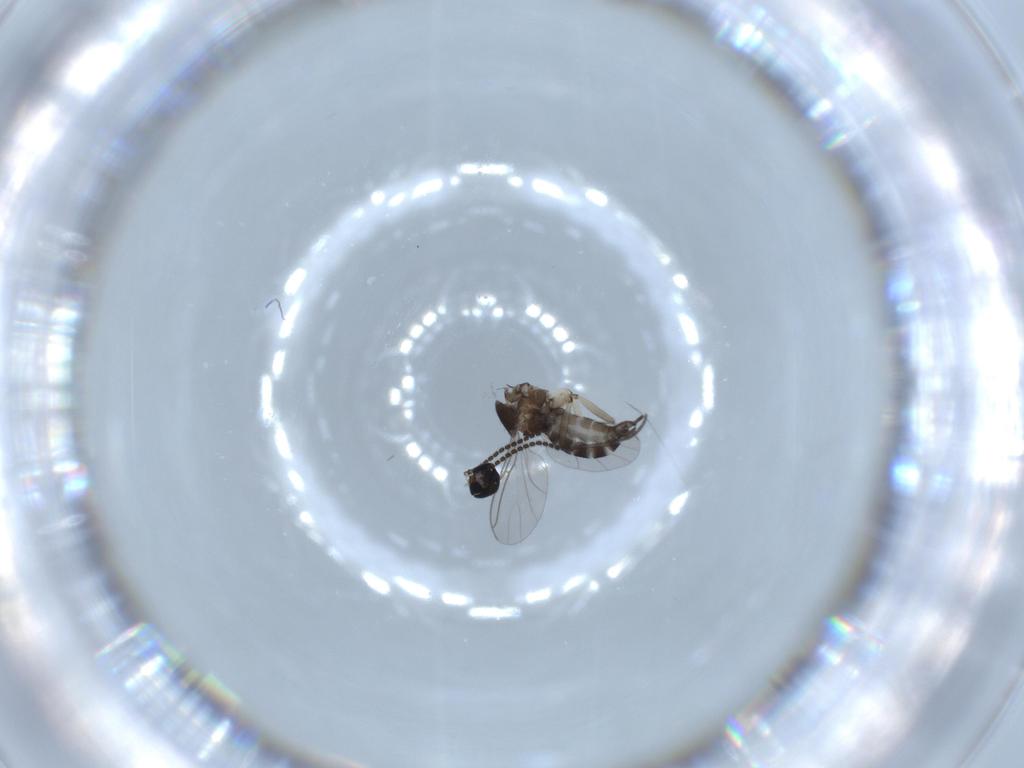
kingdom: Animalia
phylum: Arthropoda
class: Insecta
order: Diptera
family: Sciaridae
